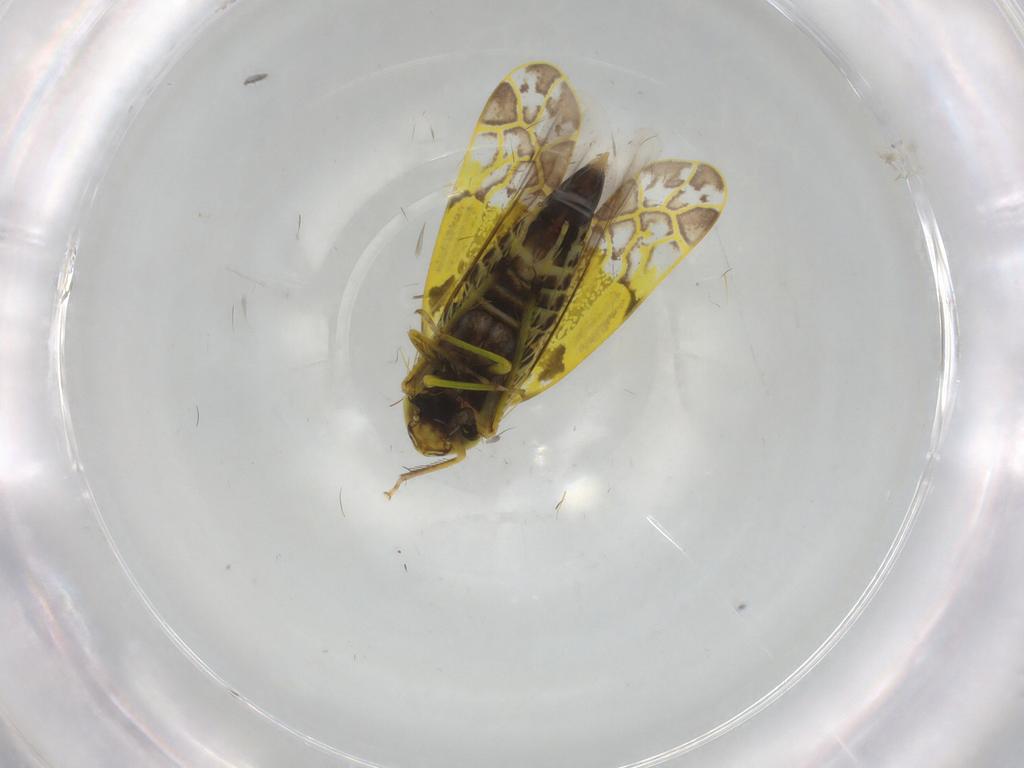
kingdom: Animalia
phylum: Arthropoda
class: Insecta
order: Hemiptera
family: Cicadellidae
